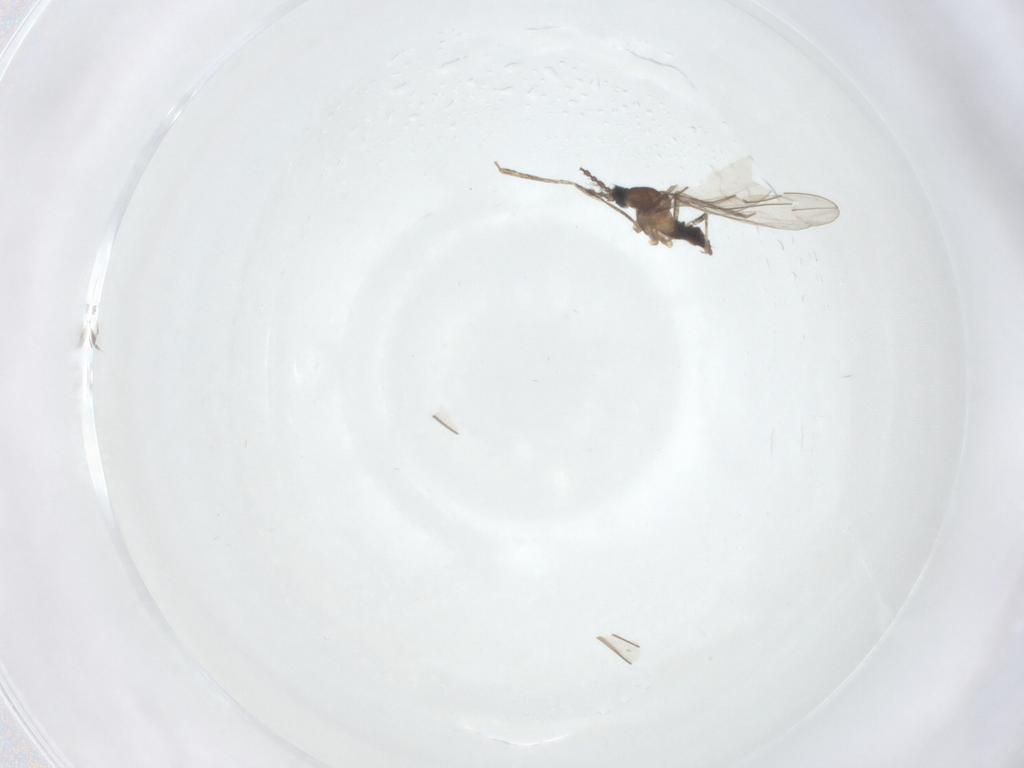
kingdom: Animalia
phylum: Arthropoda
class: Insecta
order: Diptera
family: Cecidomyiidae
